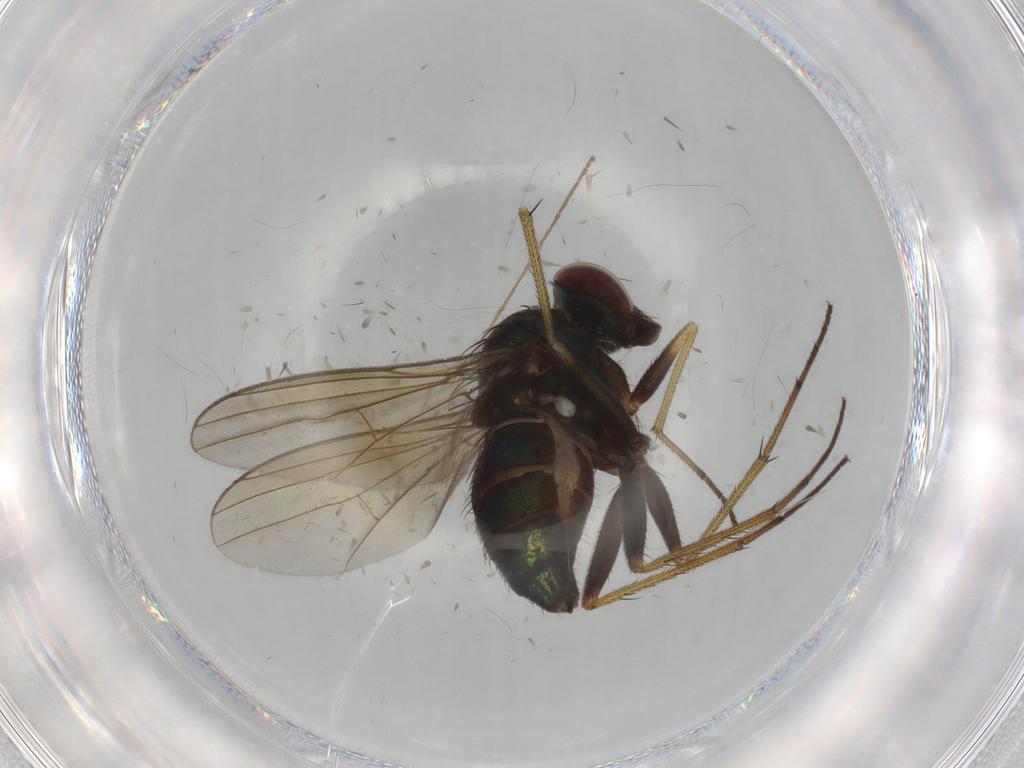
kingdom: Animalia
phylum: Arthropoda
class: Insecta
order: Diptera
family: Dolichopodidae
